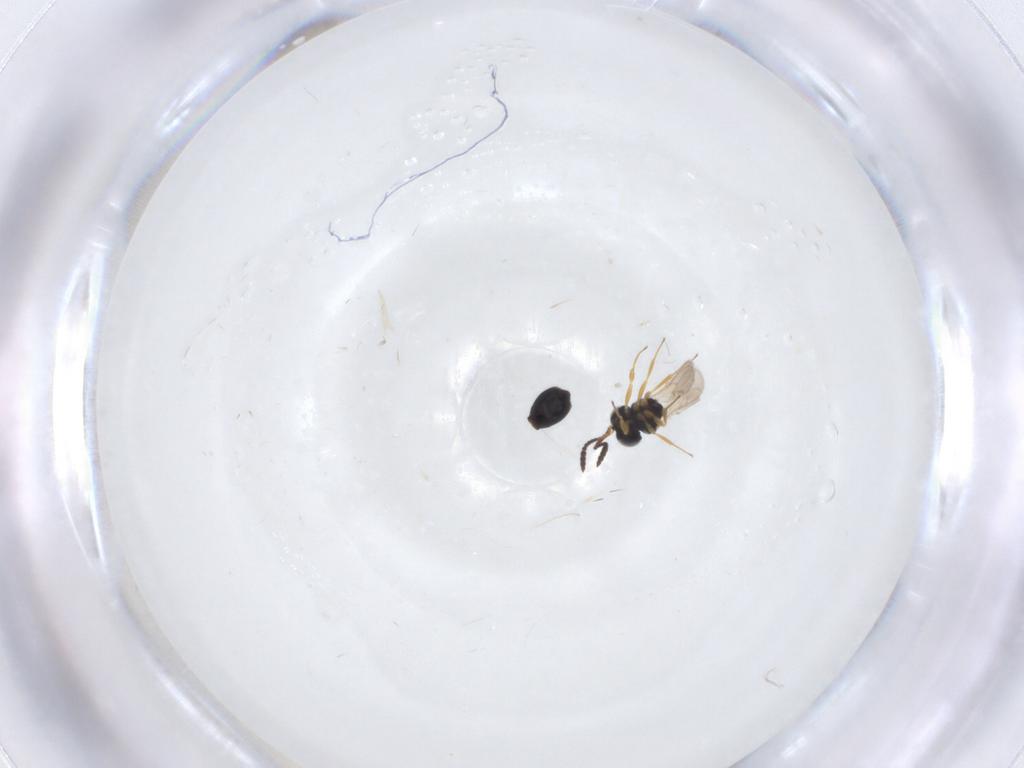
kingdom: Animalia
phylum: Arthropoda
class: Insecta
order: Hymenoptera
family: Scelionidae
